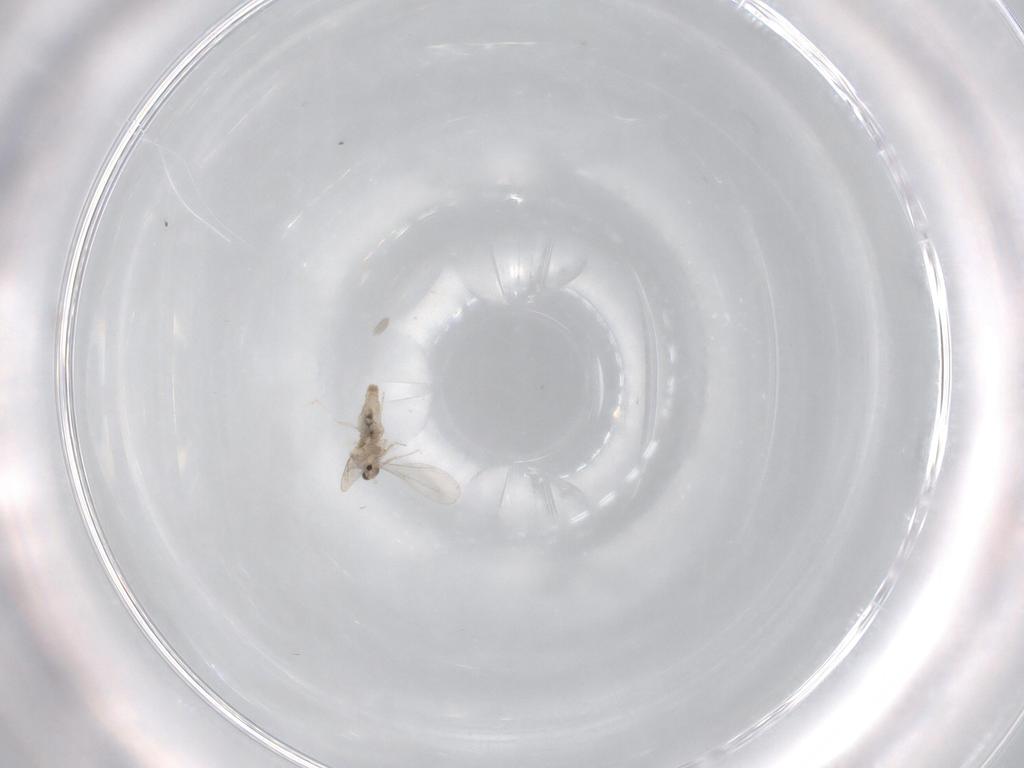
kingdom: Animalia
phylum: Arthropoda
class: Insecta
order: Diptera
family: Cecidomyiidae
